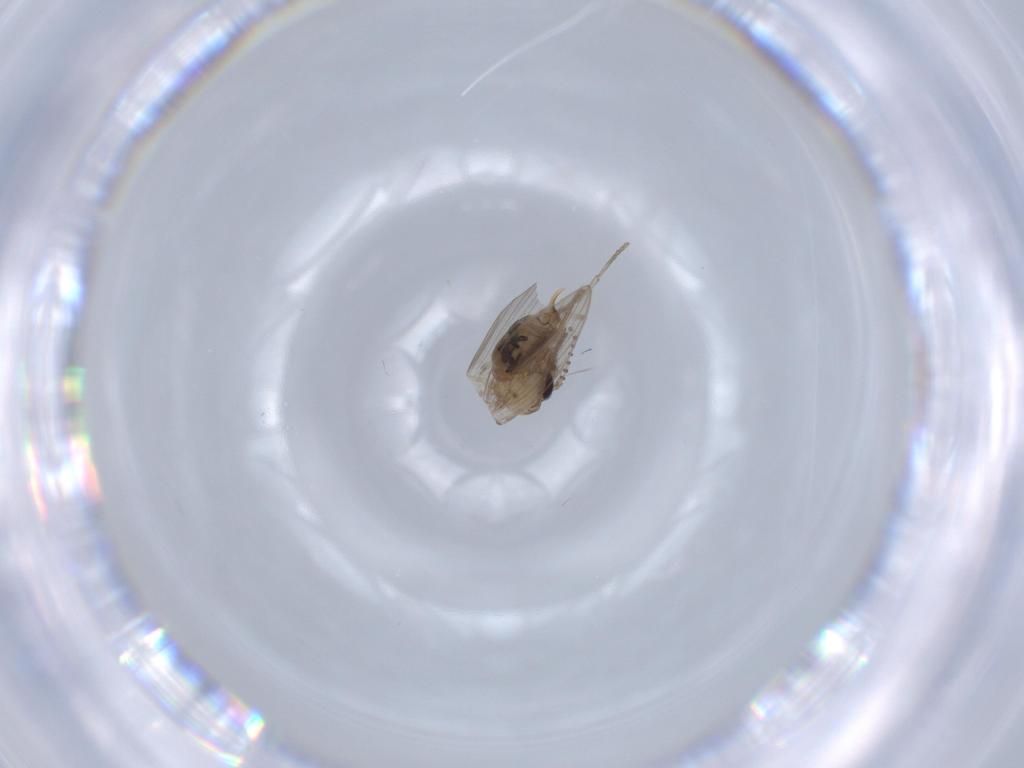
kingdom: Animalia
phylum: Arthropoda
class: Insecta
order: Diptera
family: Psychodidae
